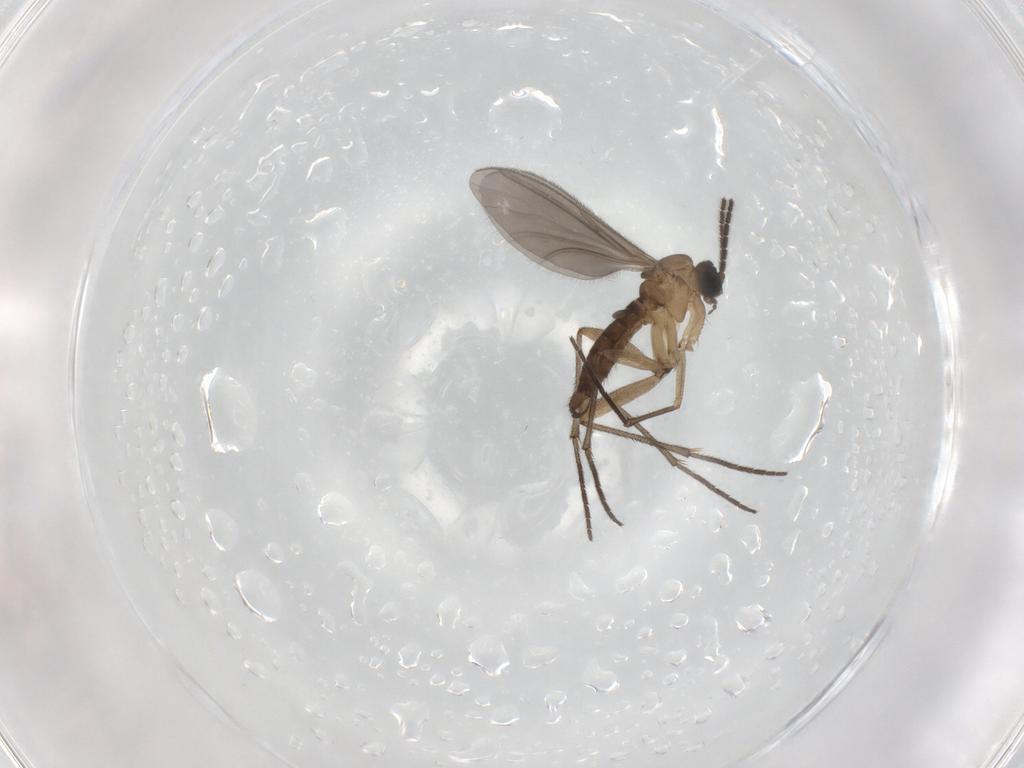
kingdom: Animalia
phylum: Arthropoda
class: Insecta
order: Diptera
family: Sciaridae
